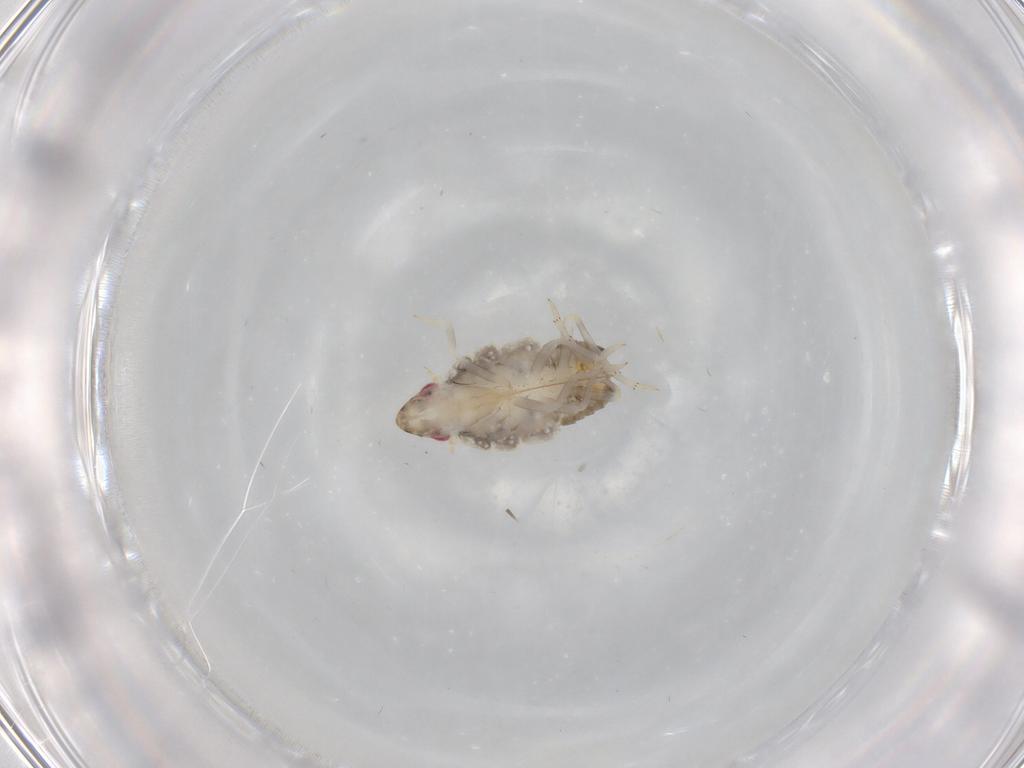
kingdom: Animalia
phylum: Arthropoda
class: Insecta
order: Hemiptera
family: Fulgoroidea_incertae_sedis
